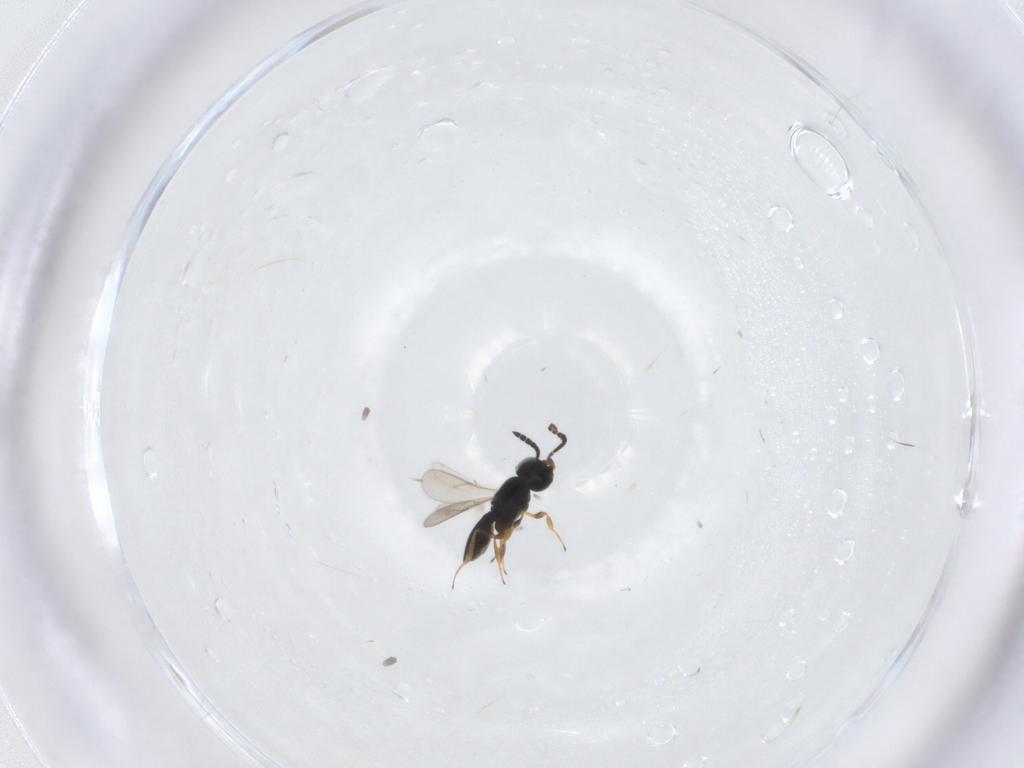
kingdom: Animalia
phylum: Arthropoda
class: Insecta
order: Hymenoptera
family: Scelionidae
